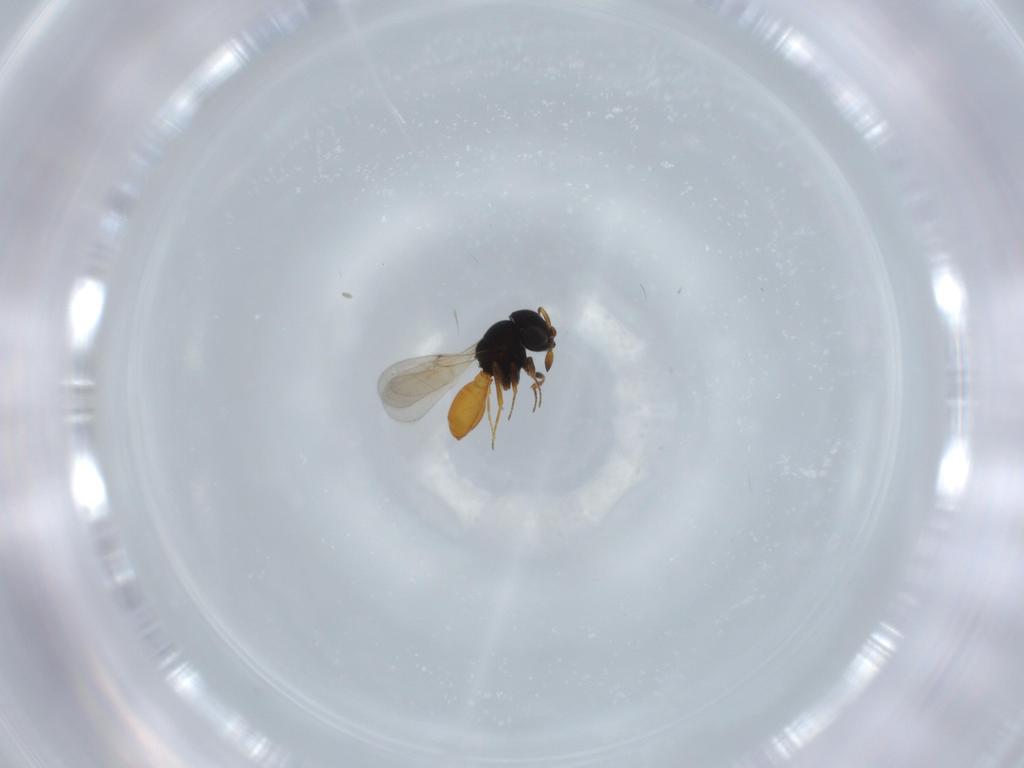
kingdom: Animalia
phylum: Arthropoda
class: Insecta
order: Hymenoptera
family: Scelionidae
